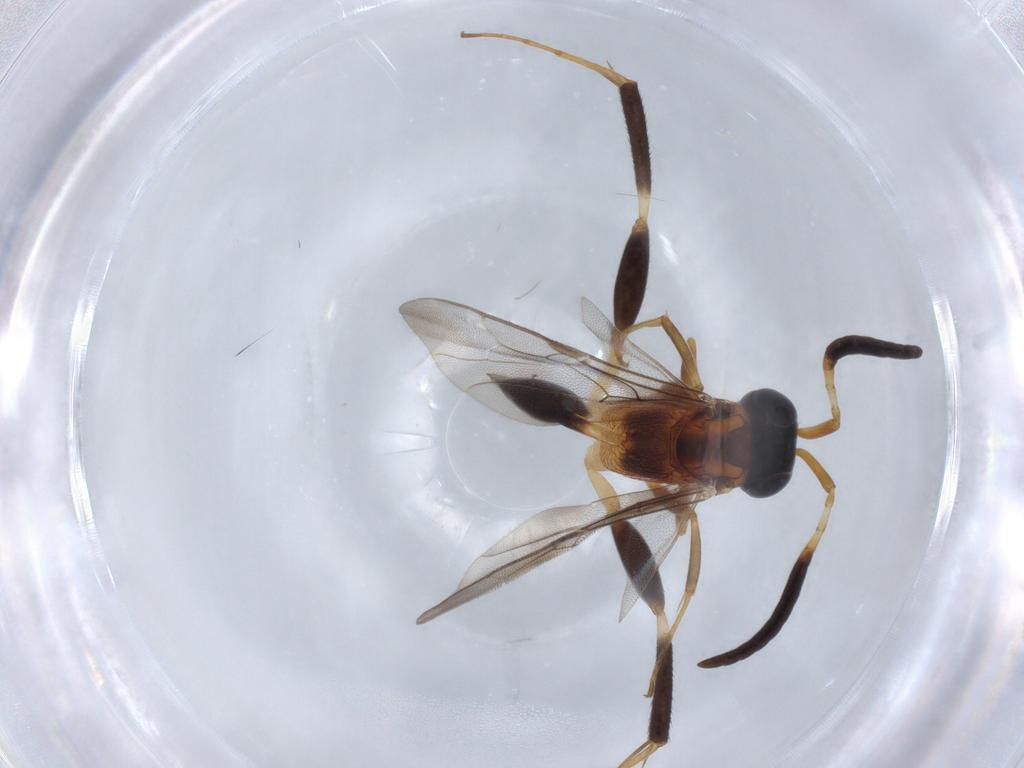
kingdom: Animalia
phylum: Arthropoda
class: Insecta
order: Hymenoptera
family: Evaniidae
